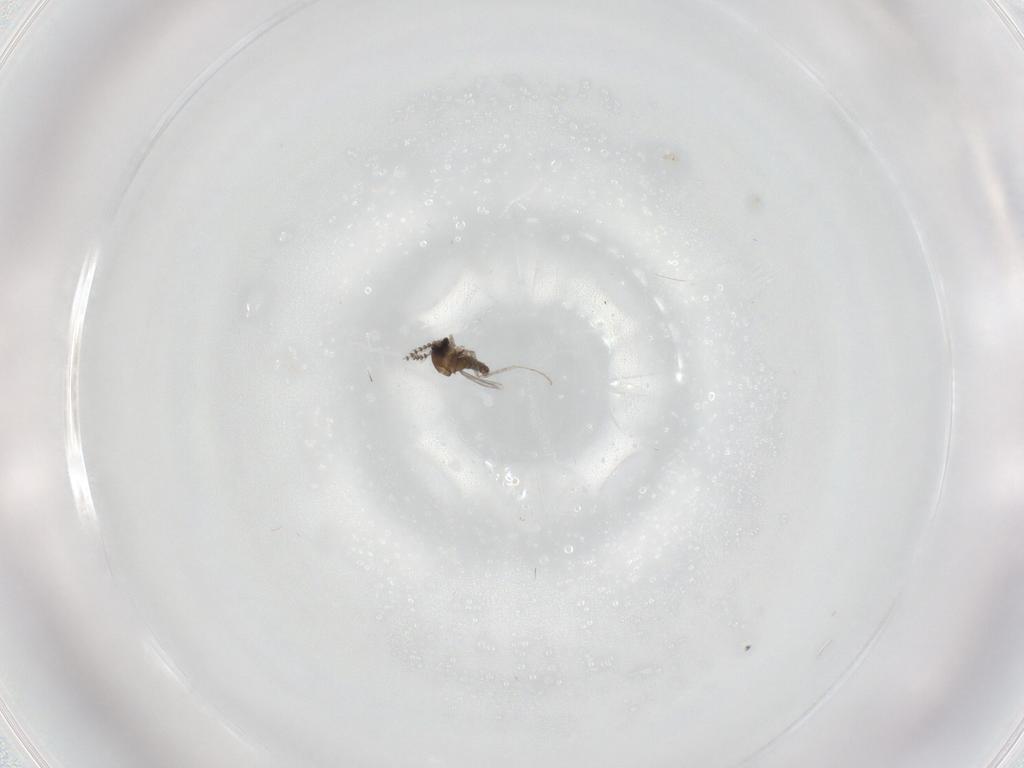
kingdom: Animalia
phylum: Arthropoda
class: Insecta
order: Diptera
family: Cecidomyiidae
